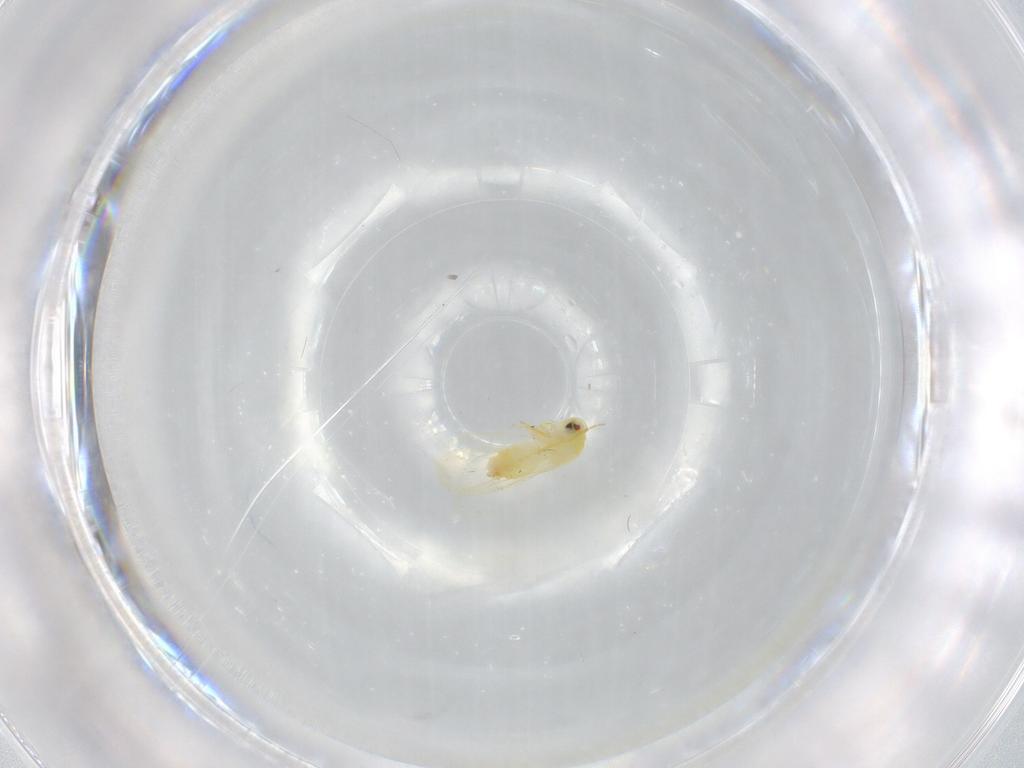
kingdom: Animalia
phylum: Arthropoda
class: Insecta
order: Hemiptera
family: Aleyrodidae
